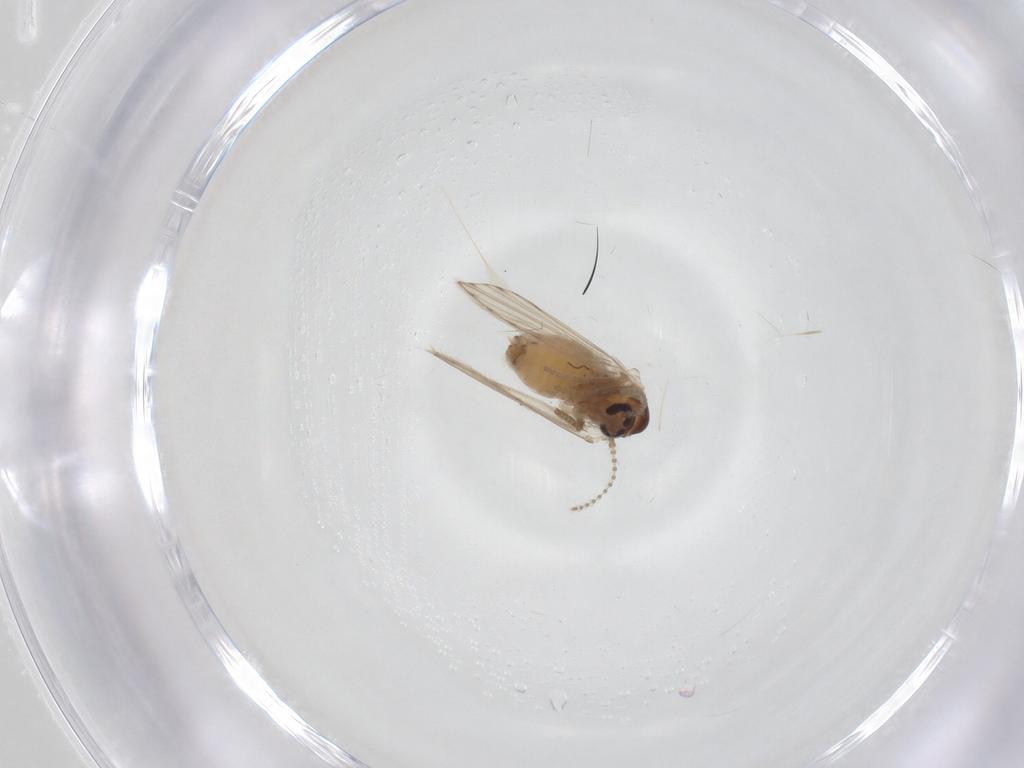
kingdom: Animalia
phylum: Arthropoda
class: Insecta
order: Diptera
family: Psychodidae
